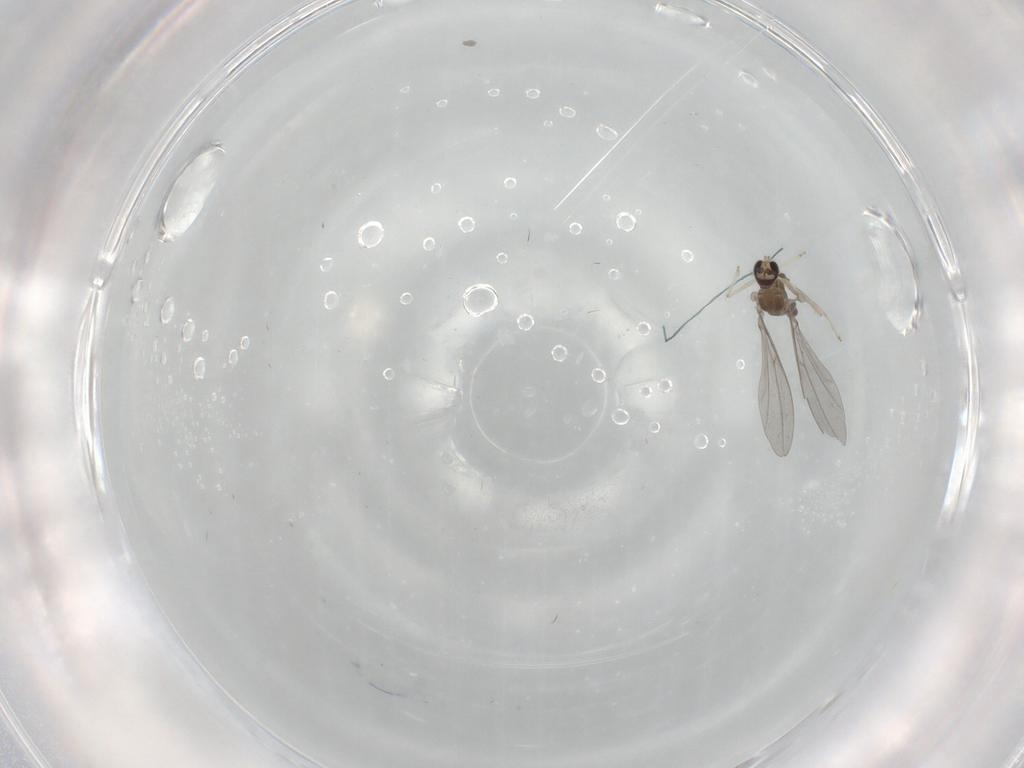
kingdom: Animalia
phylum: Arthropoda
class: Insecta
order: Diptera
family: Cecidomyiidae
